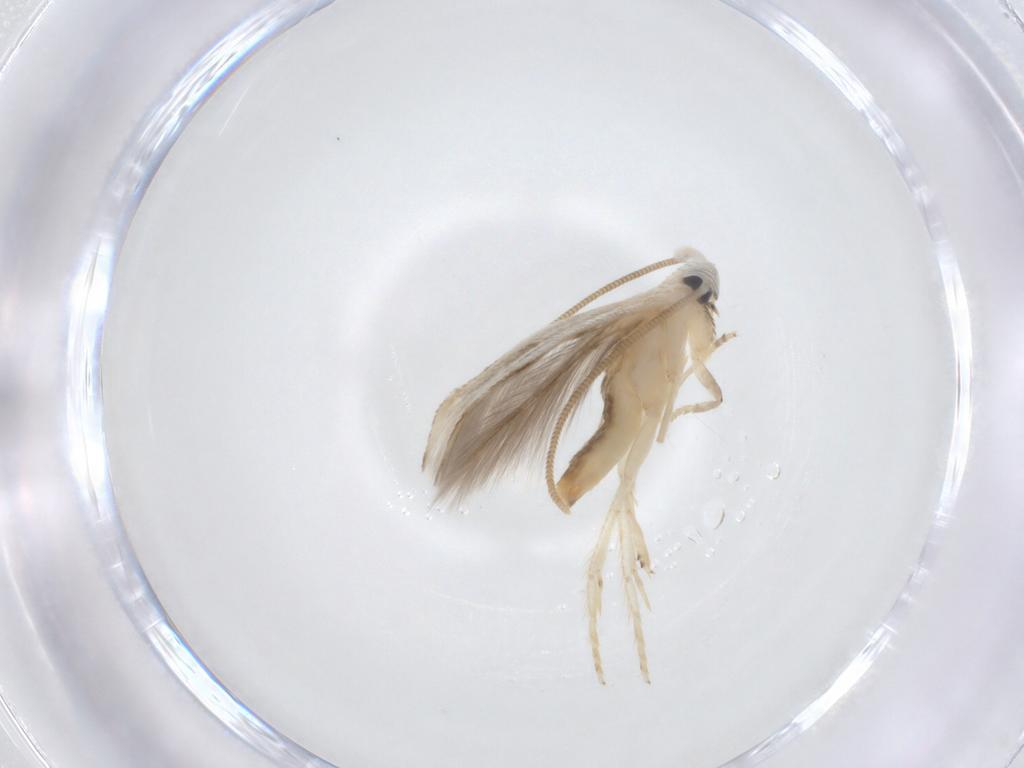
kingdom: Animalia
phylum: Arthropoda
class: Insecta
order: Lepidoptera
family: Opostegidae
